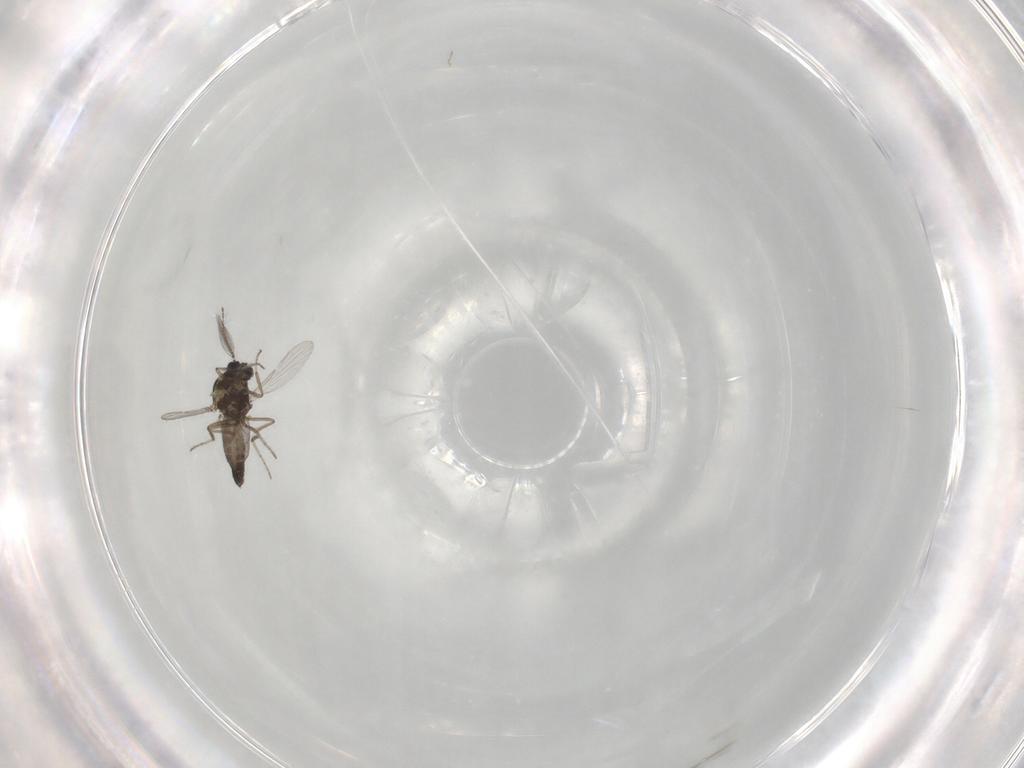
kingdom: Animalia
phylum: Arthropoda
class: Insecta
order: Diptera
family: Ceratopogonidae
